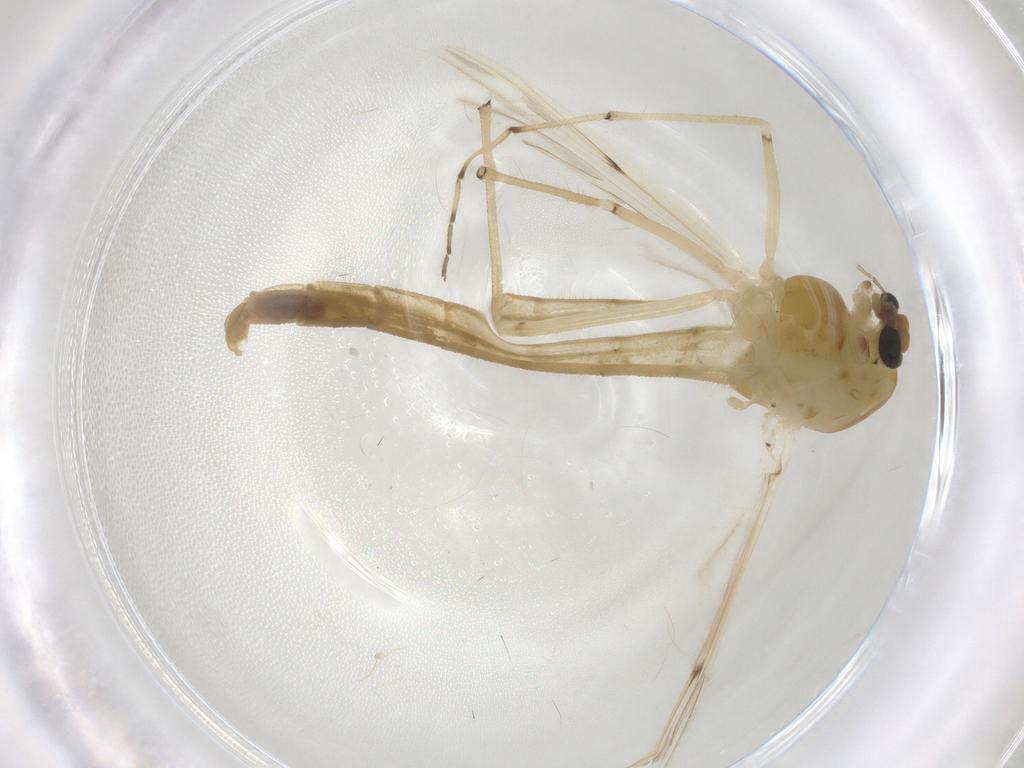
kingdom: Animalia
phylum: Arthropoda
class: Insecta
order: Diptera
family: Chironomidae
